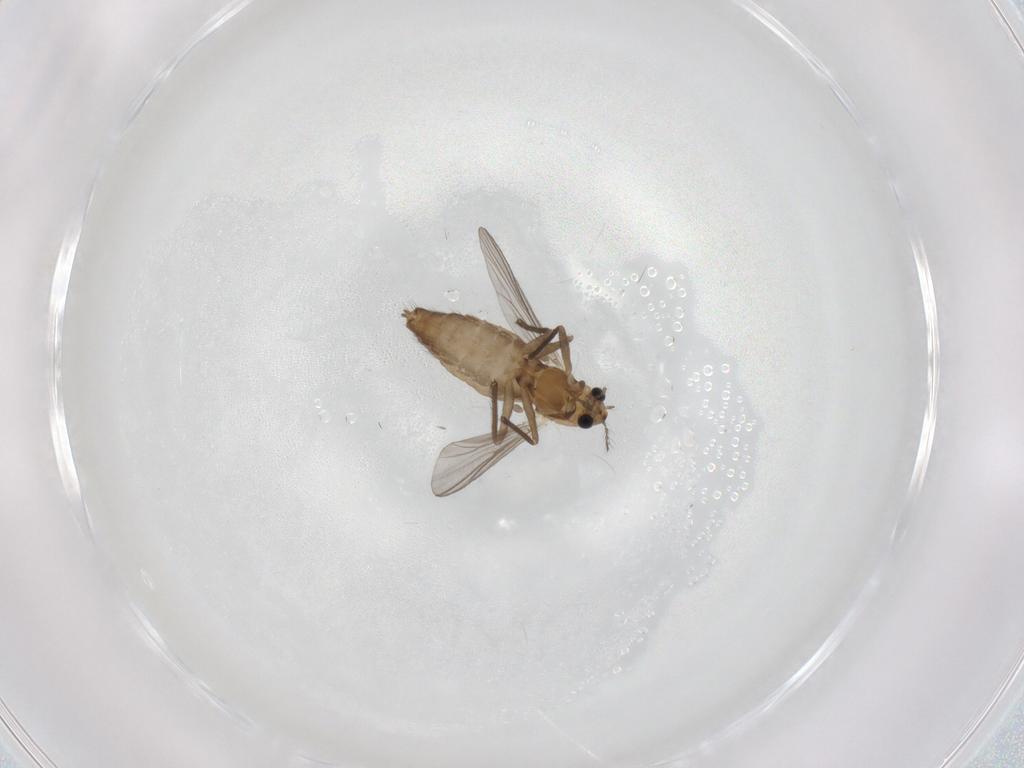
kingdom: Animalia
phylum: Arthropoda
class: Insecta
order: Diptera
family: Chironomidae
